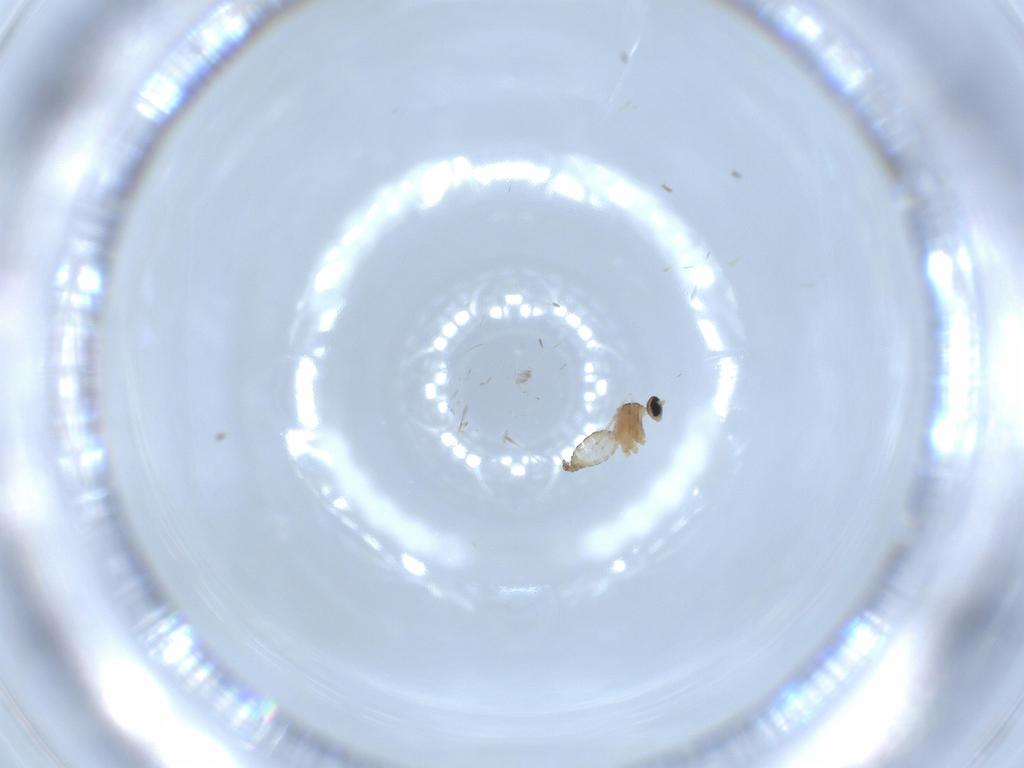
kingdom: Animalia
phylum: Arthropoda
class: Insecta
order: Diptera
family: Cecidomyiidae
